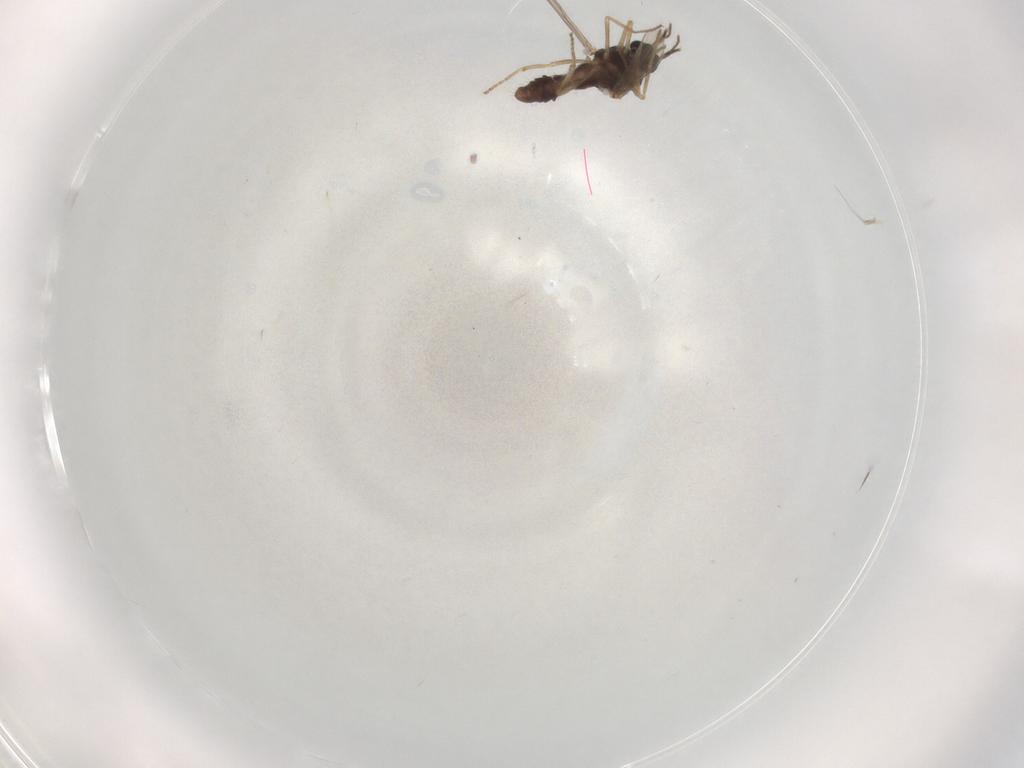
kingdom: Animalia
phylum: Arthropoda
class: Insecta
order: Diptera
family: Ceratopogonidae
